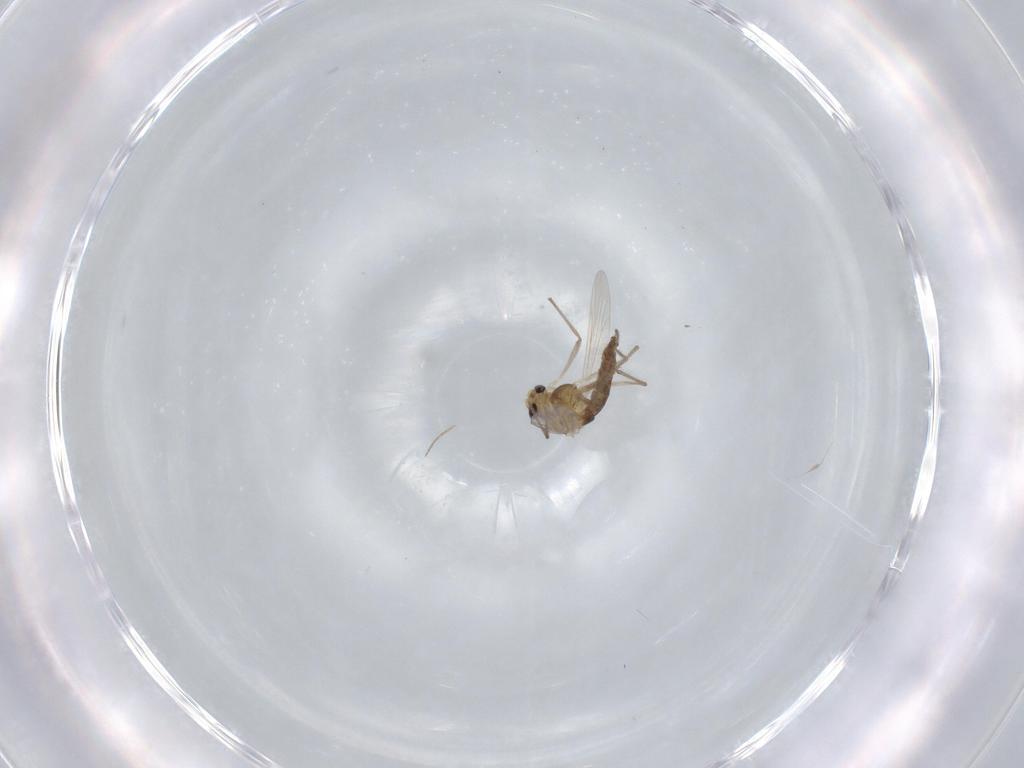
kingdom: Animalia
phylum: Arthropoda
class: Insecta
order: Diptera
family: Chironomidae
